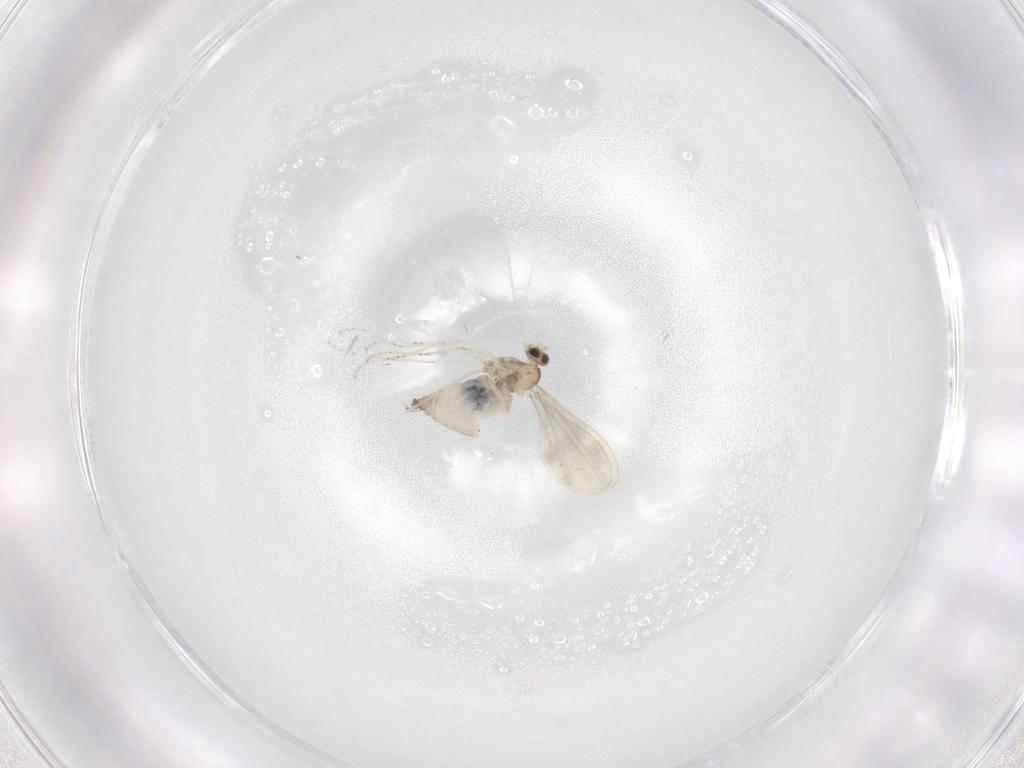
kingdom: Animalia
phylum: Arthropoda
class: Insecta
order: Diptera
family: Cecidomyiidae
